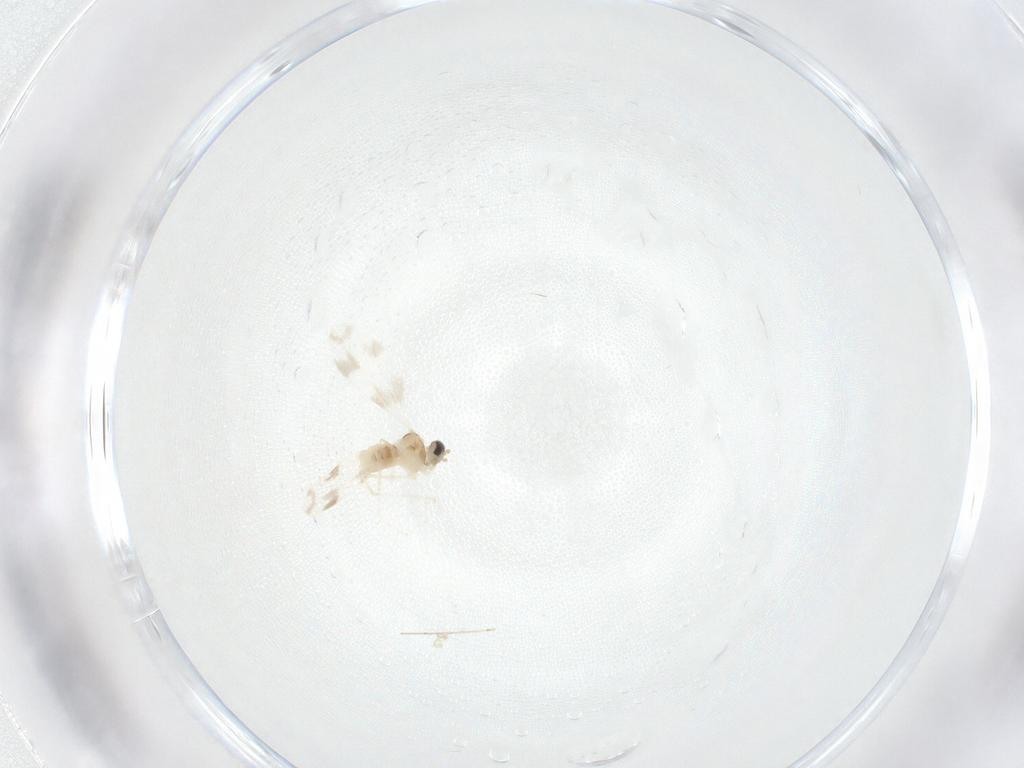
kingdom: Animalia
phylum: Arthropoda
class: Insecta
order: Diptera
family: Cecidomyiidae
